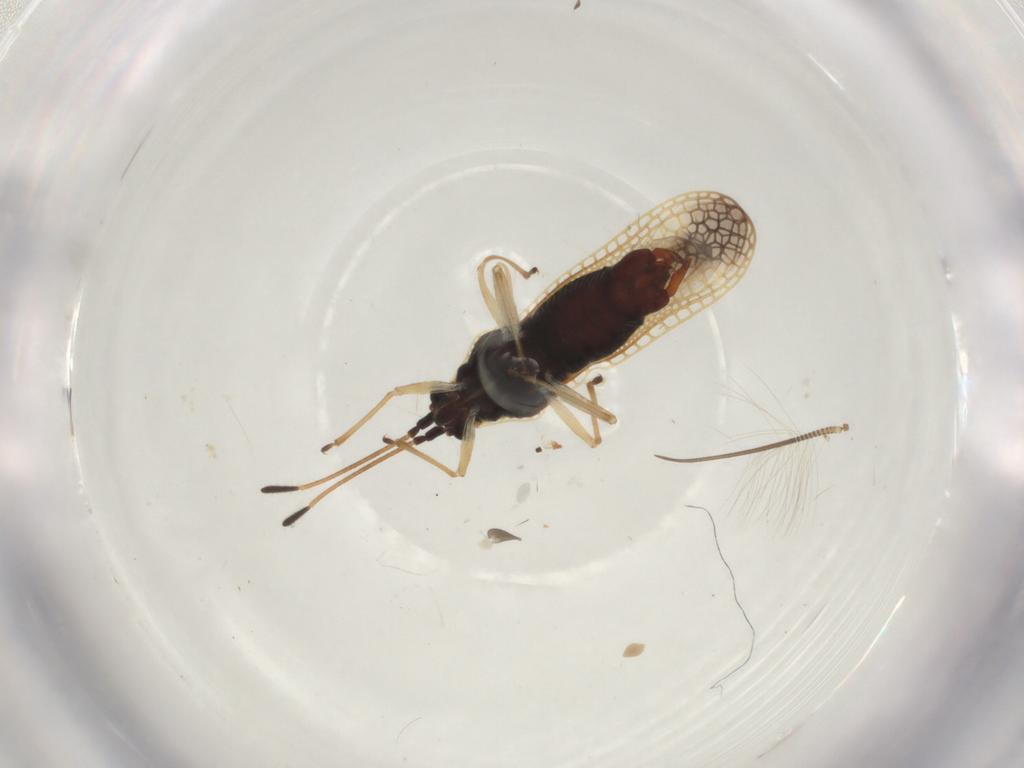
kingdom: Animalia
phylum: Arthropoda
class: Insecta
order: Hemiptera
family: Tingidae
